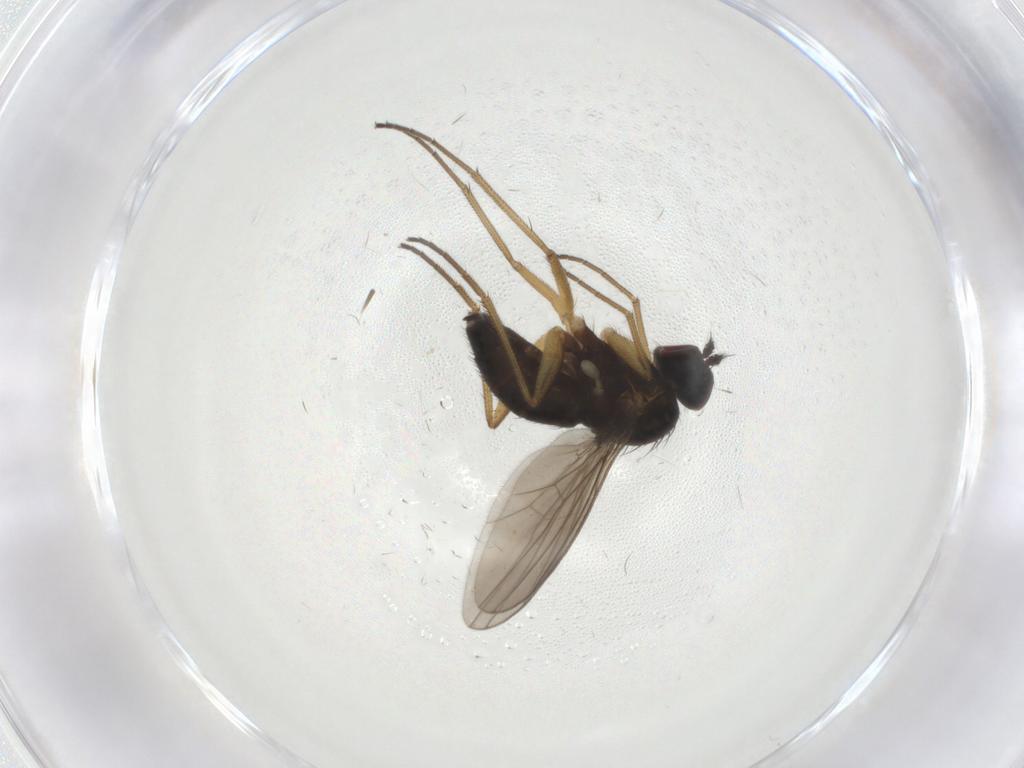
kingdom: Animalia
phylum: Arthropoda
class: Insecta
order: Diptera
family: Dolichopodidae
